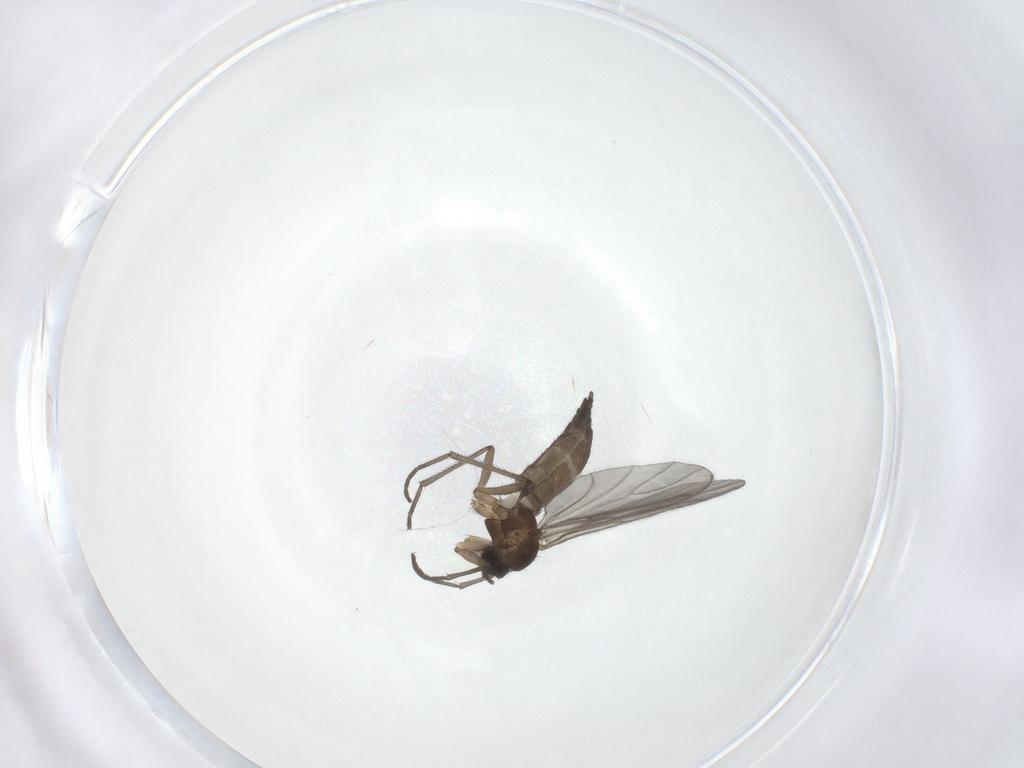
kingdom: Animalia
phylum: Arthropoda
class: Insecta
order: Diptera
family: Sciaridae
